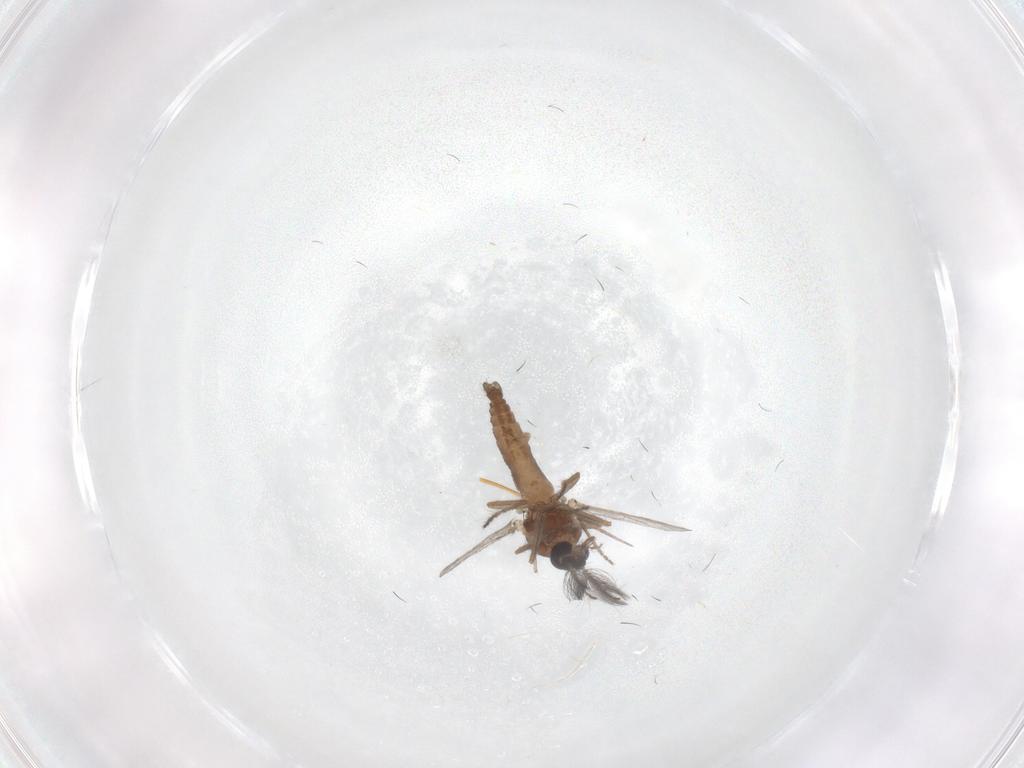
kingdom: Animalia
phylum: Arthropoda
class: Insecta
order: Diptera
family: Ceratopogonidae
